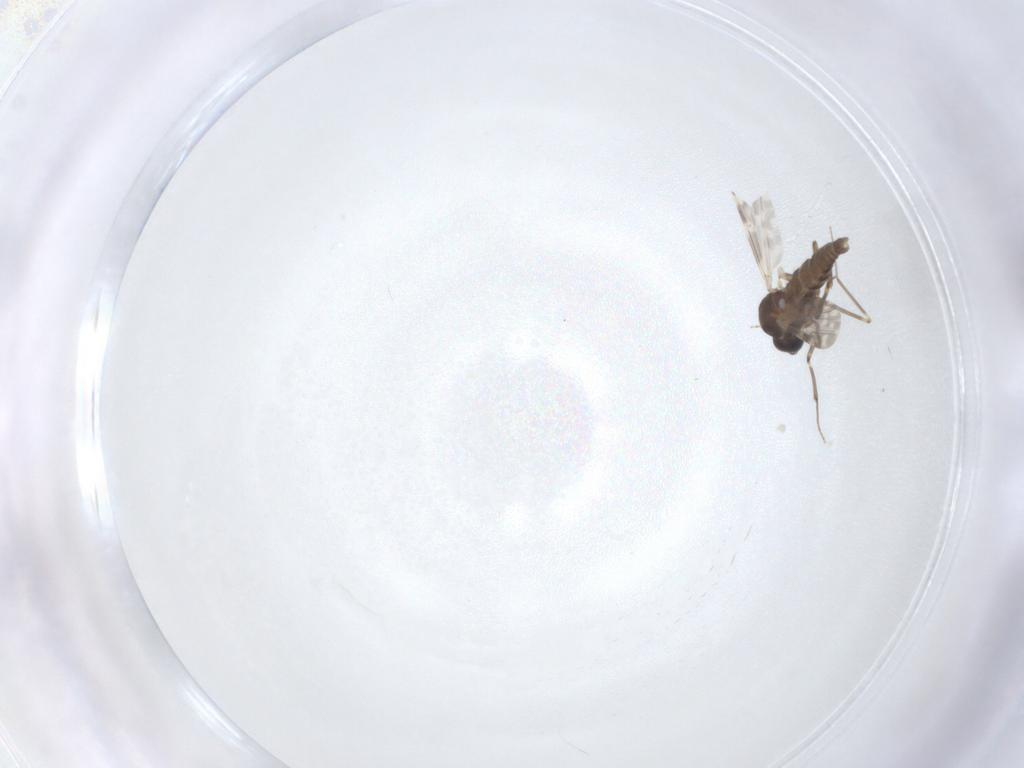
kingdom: Animalia
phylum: Arthropoda
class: Insecta
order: Diptera
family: Ceratopogonidae
